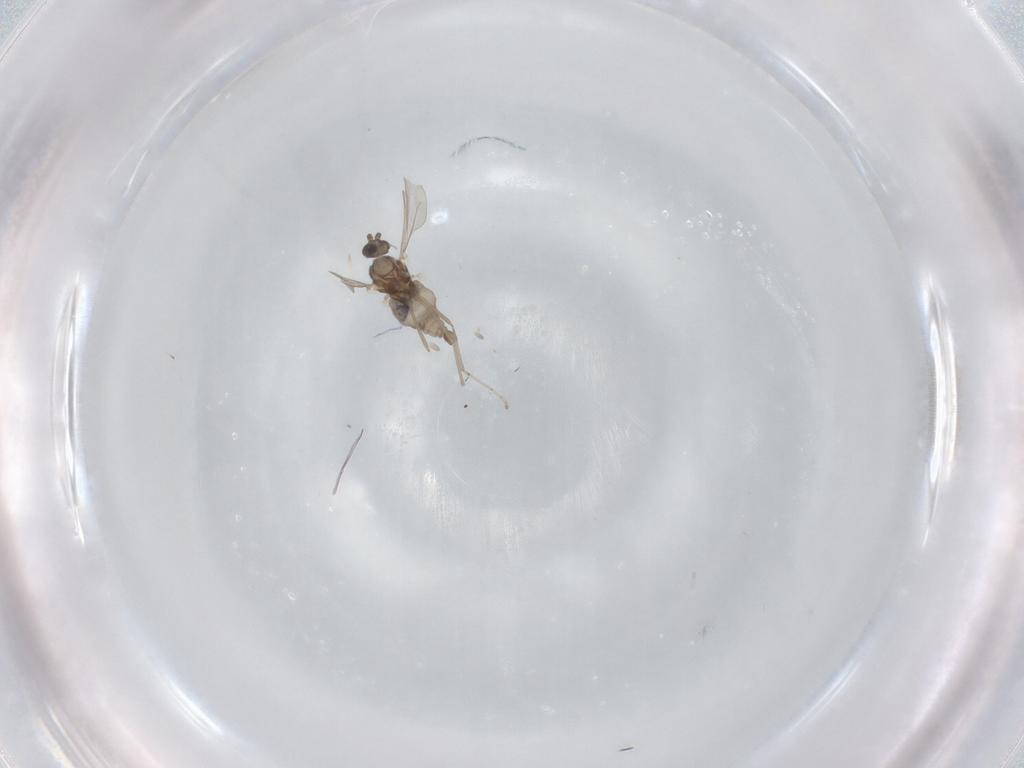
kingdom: Animalia
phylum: Arthropoda
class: Insecta
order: Diptera
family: Cecidomyiidae
